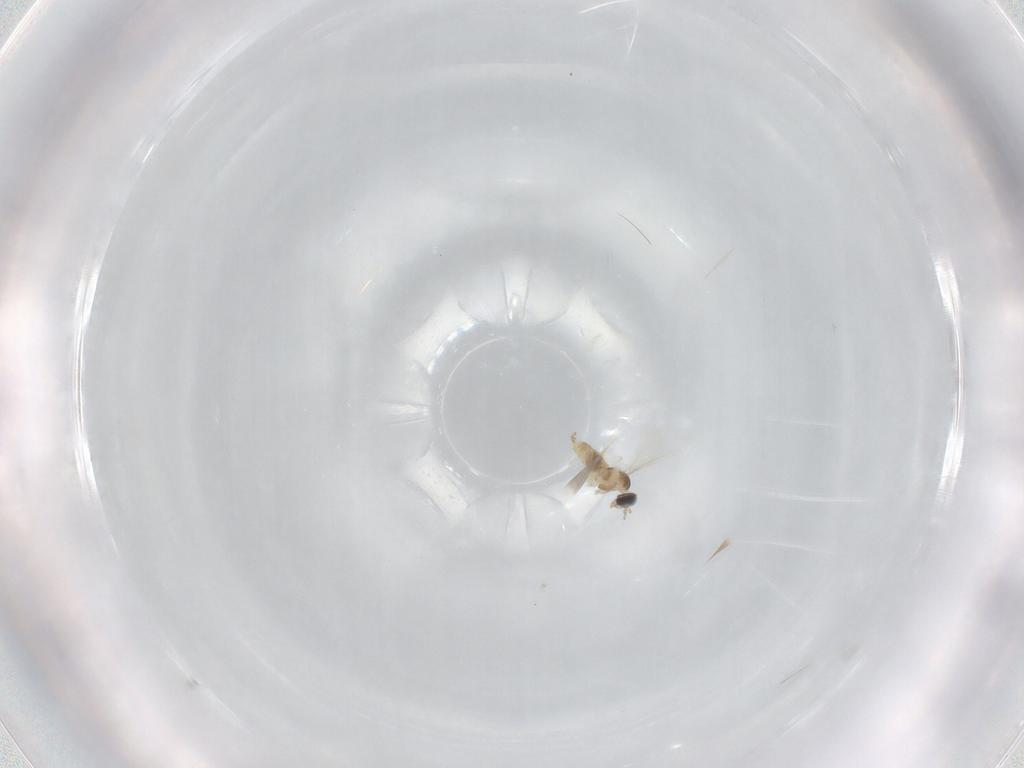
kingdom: Animalia
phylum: Arthropoda
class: Insecta
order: Diptera
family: Cecidomyiidae
